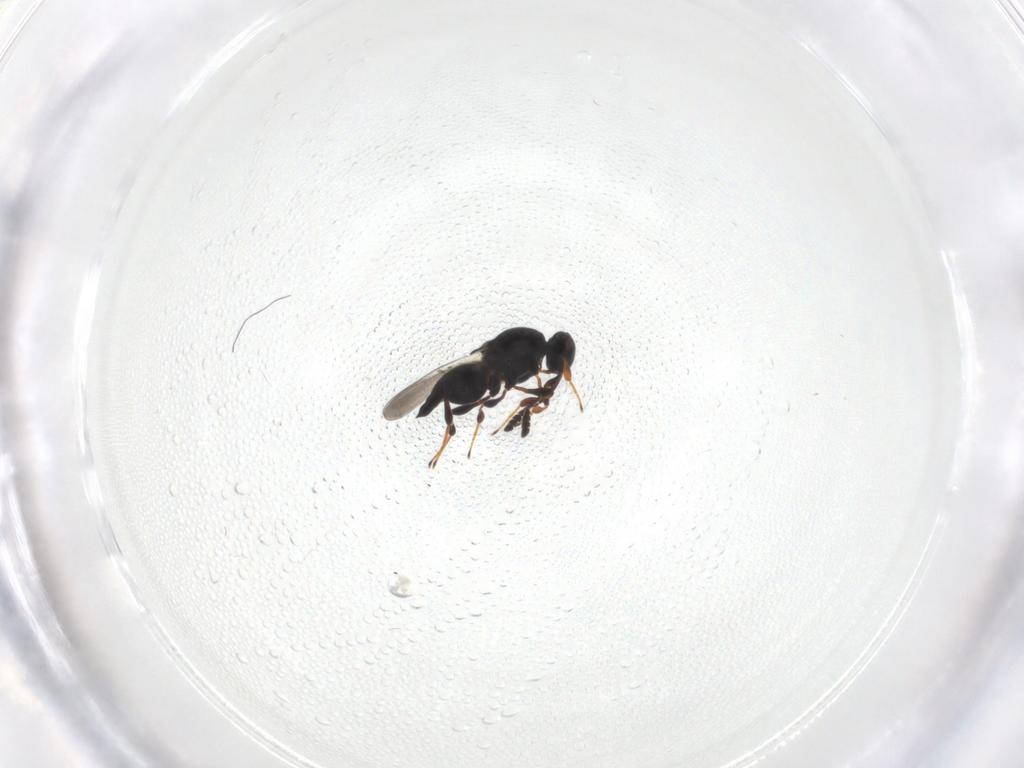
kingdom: Animalia
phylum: Arthropoda
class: Insecta
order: Hymenoptera
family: Platygastridae
